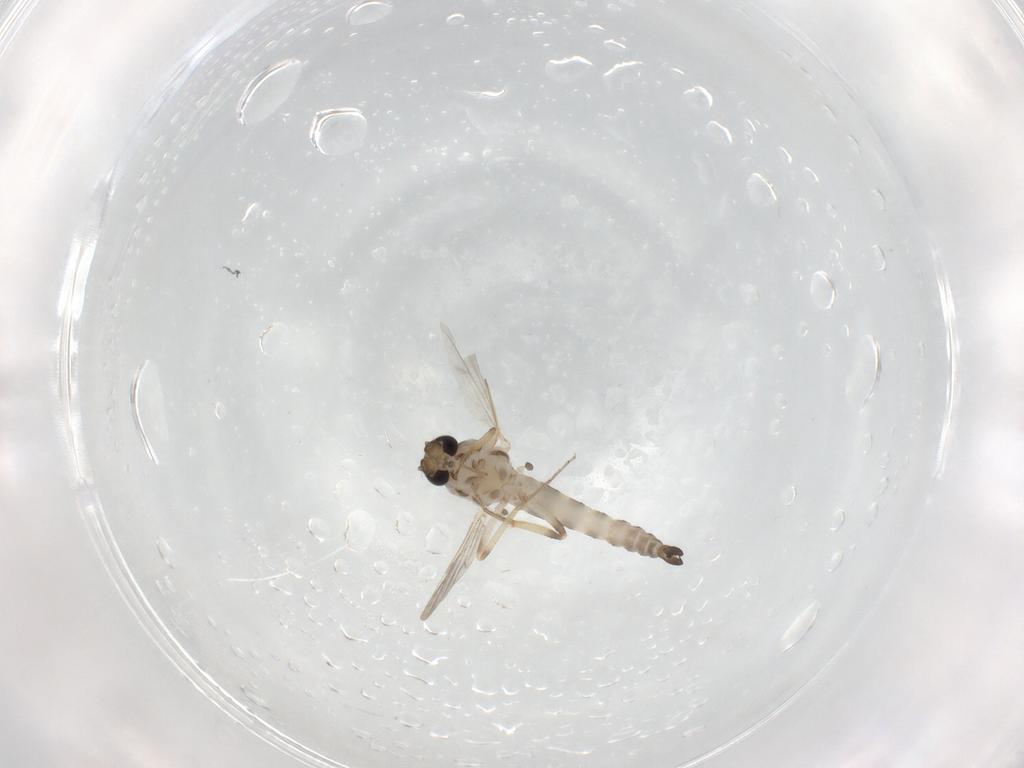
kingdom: Animalia
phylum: Arthropoda
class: Insecta
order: Diptera
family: Ceratopogonidae
